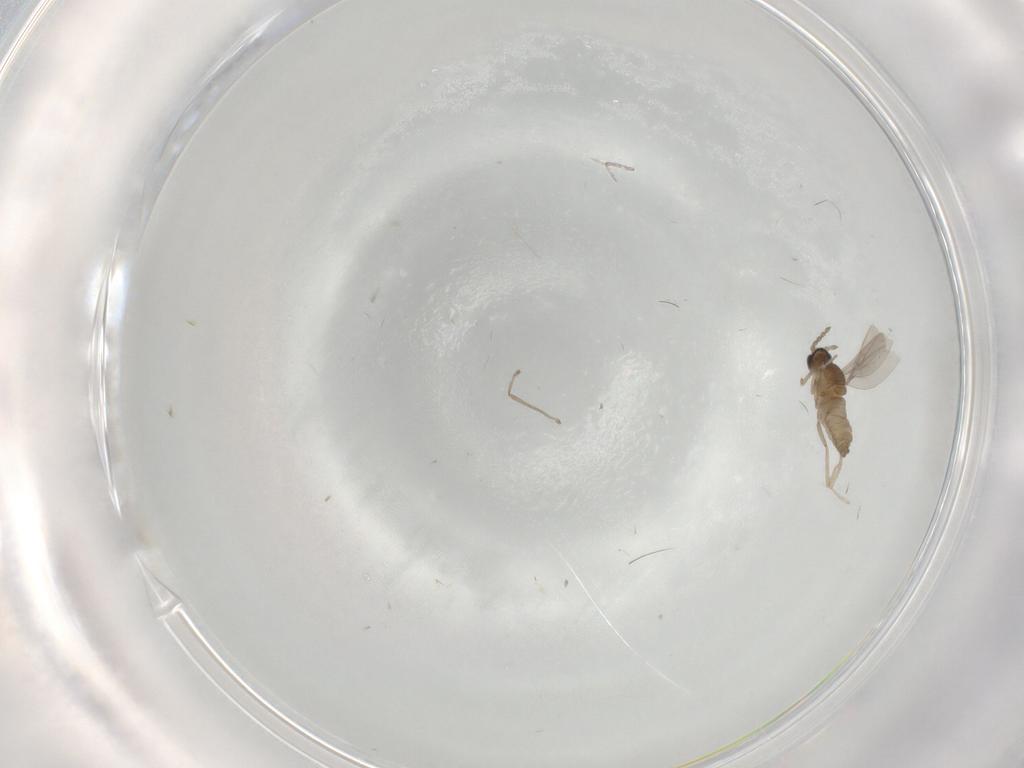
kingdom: Animalia
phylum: Arthropoda
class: Insecta
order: Diptera
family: Cecidomyiidae
